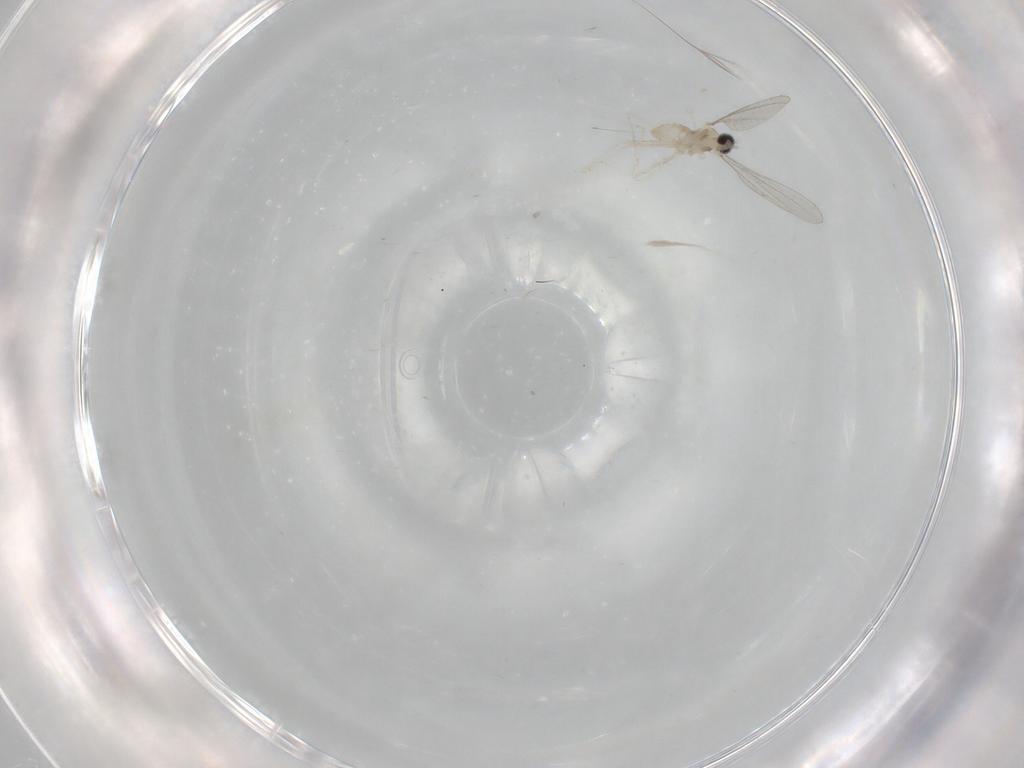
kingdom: Animalia
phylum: Arthropoda
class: Insecta
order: Diptera
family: Cecidomyiidae
